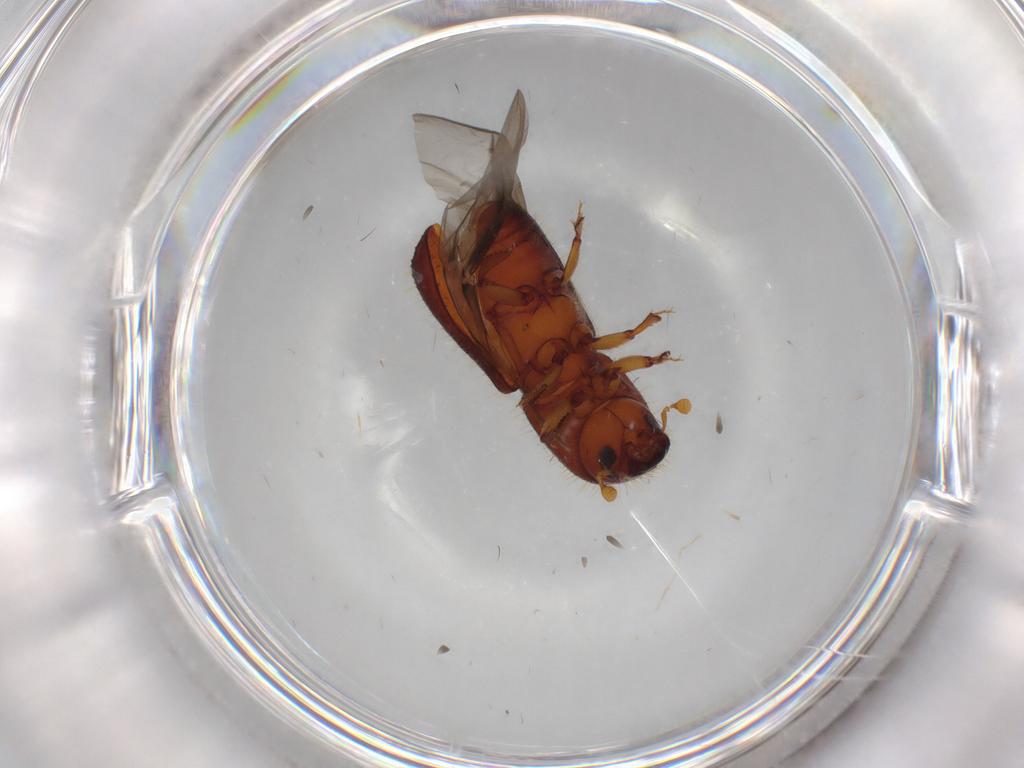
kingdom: Animalia
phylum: Arthropoda
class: Insecta
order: Coleoptera
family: Curculionidae
